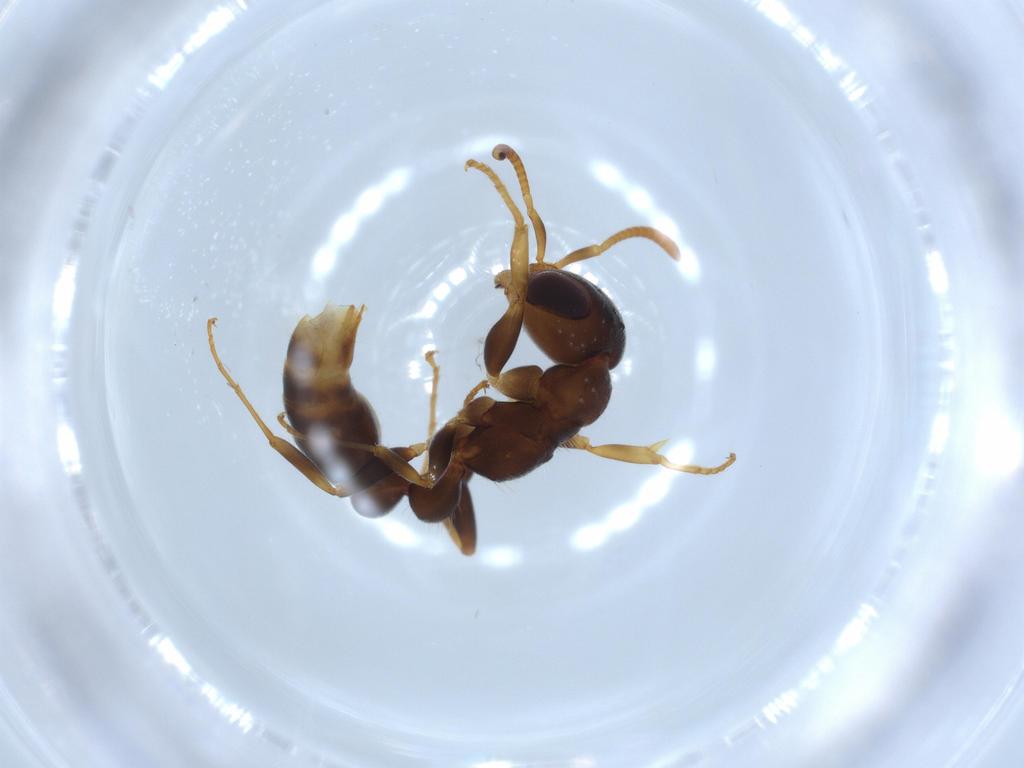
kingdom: Animalia
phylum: Arthropoda
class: Insecta
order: Hymenoptera
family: Formicidae
